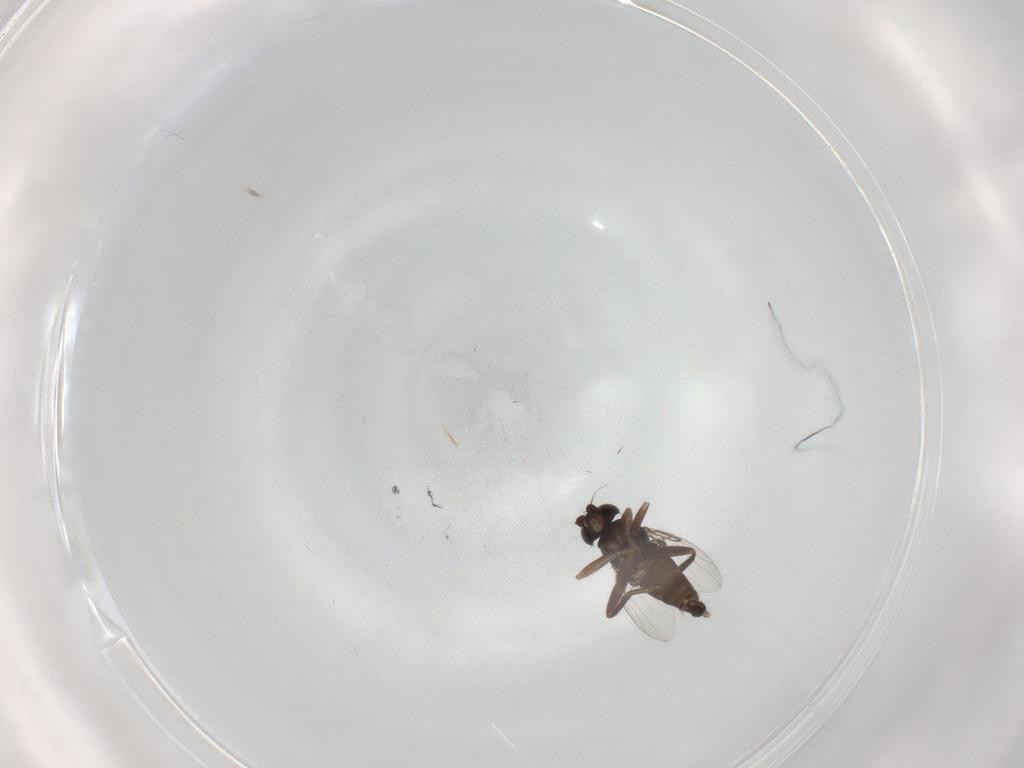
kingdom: Animalia
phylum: Arthropoda
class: Insecta
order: Diptera
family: Phoridae
